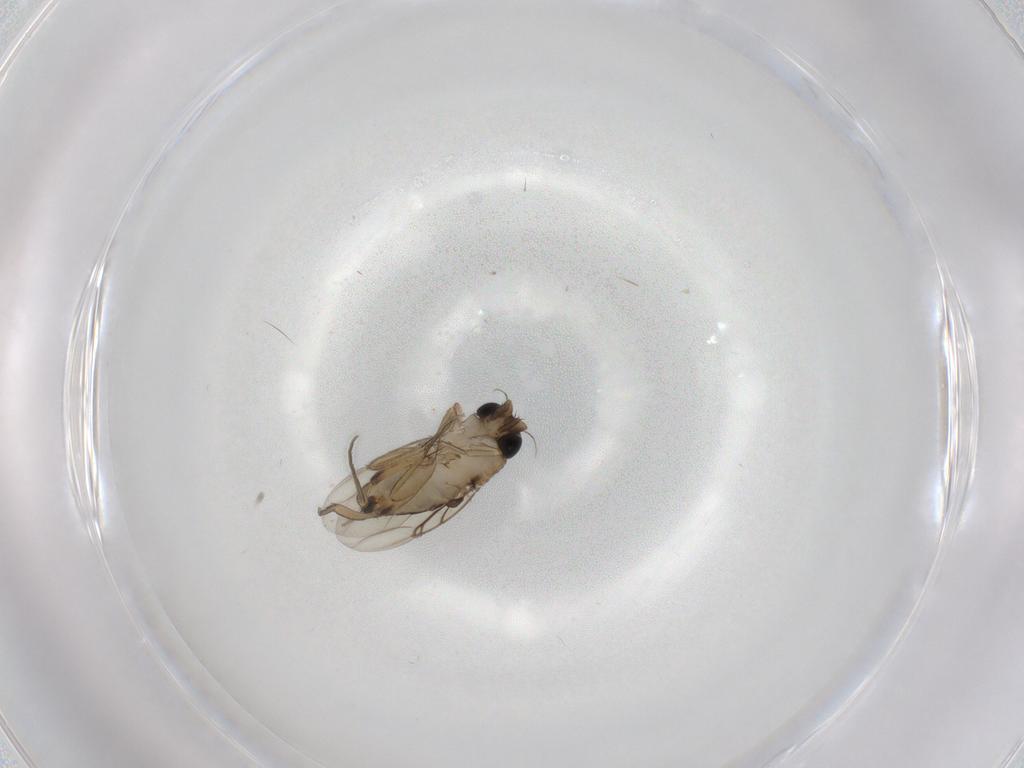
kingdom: Animalia
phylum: Arthropoda
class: Insecta
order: Diptera
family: Phoridae
